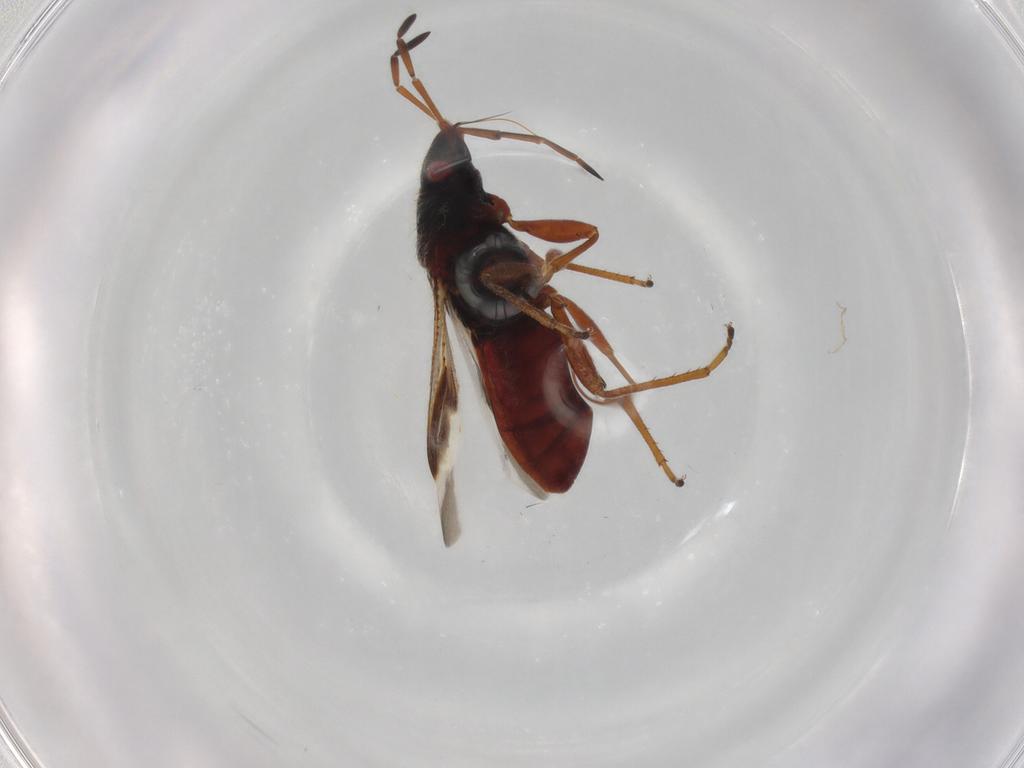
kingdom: Animalia
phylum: Arthropoda
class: Insecta
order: Hemiptera
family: Rhyparochromidae
